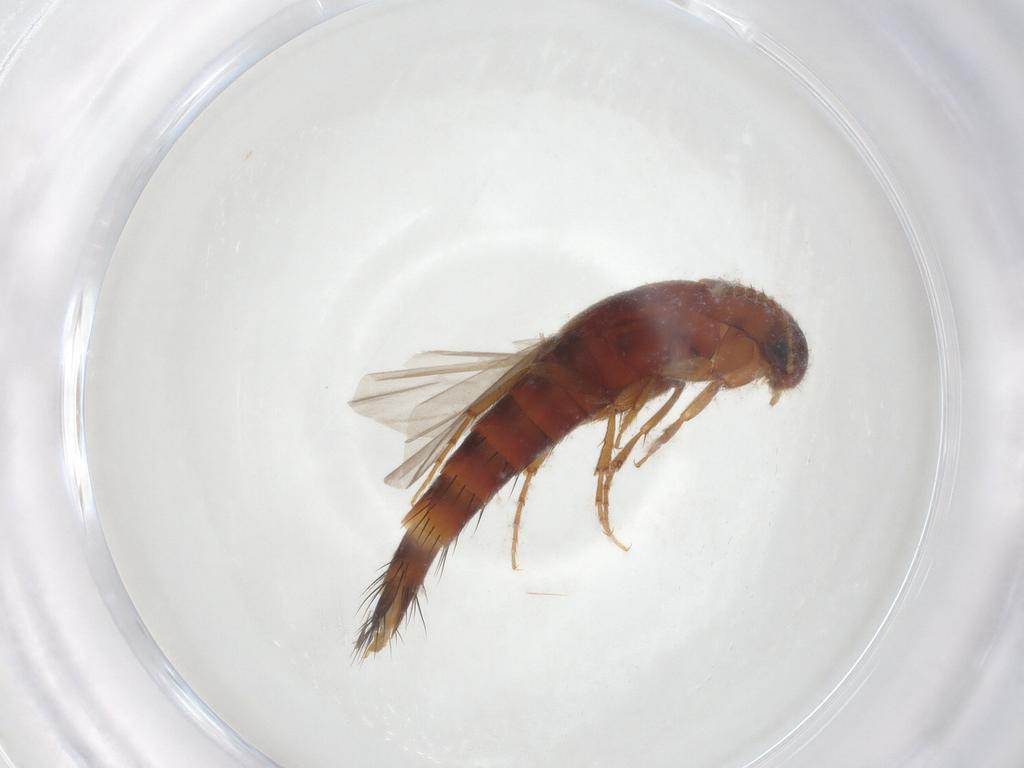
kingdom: Animalia
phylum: Arthropoda
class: Insecta
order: Coleoptera
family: Staphylinidae
